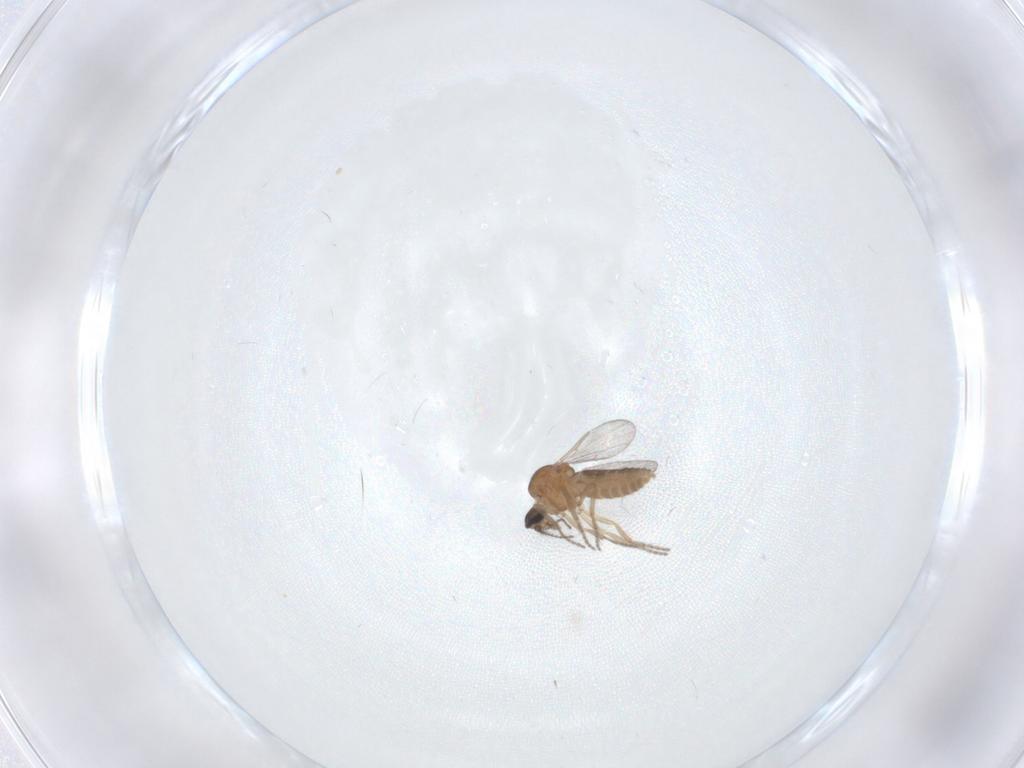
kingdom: Animalia
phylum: Arthropoda
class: Insecta
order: Diptera
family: Ceratopogonidae
